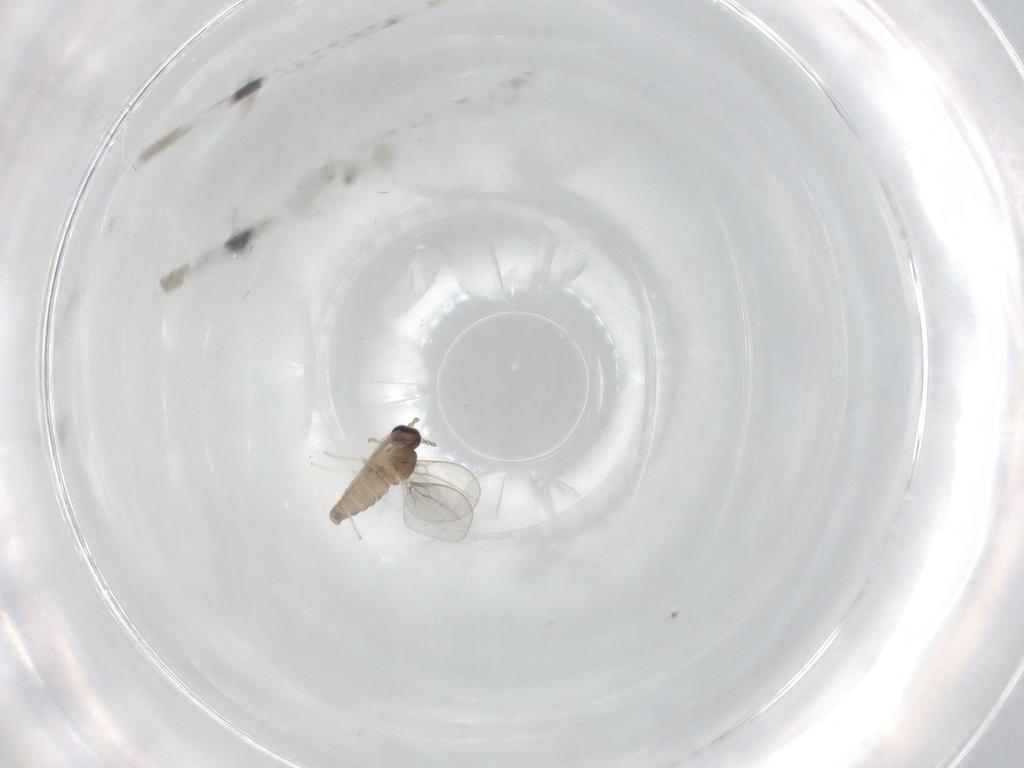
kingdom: Animalia
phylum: Arthropoda
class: Insecta
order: Diptera
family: Cecidomyiidae
